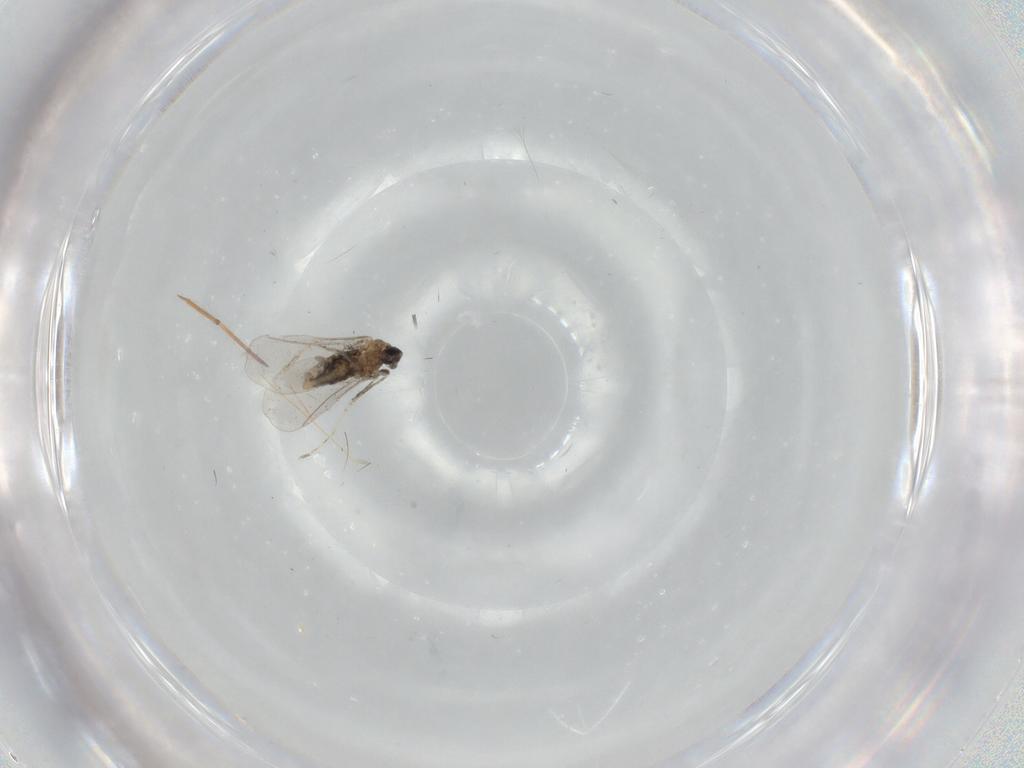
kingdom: Animalia
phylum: Arthropoda
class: Insecta
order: Diptera
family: Cecidomyiidae
